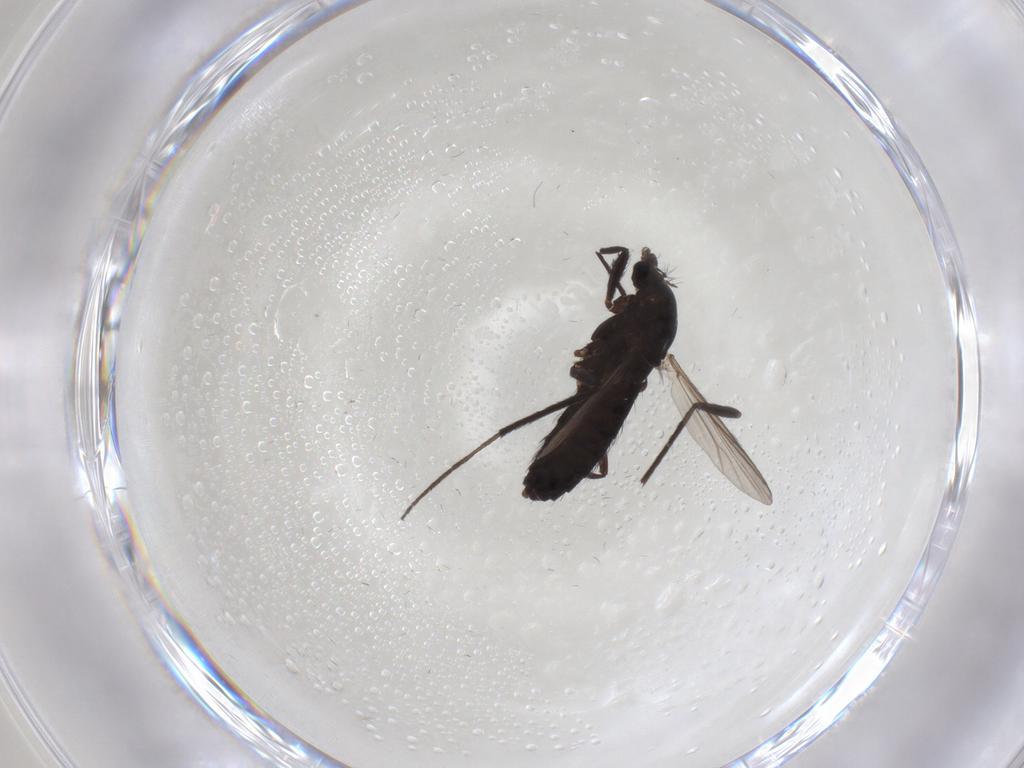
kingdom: Animalia
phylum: Arthropoda
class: Insecta
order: Diptera
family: Chironomidae
